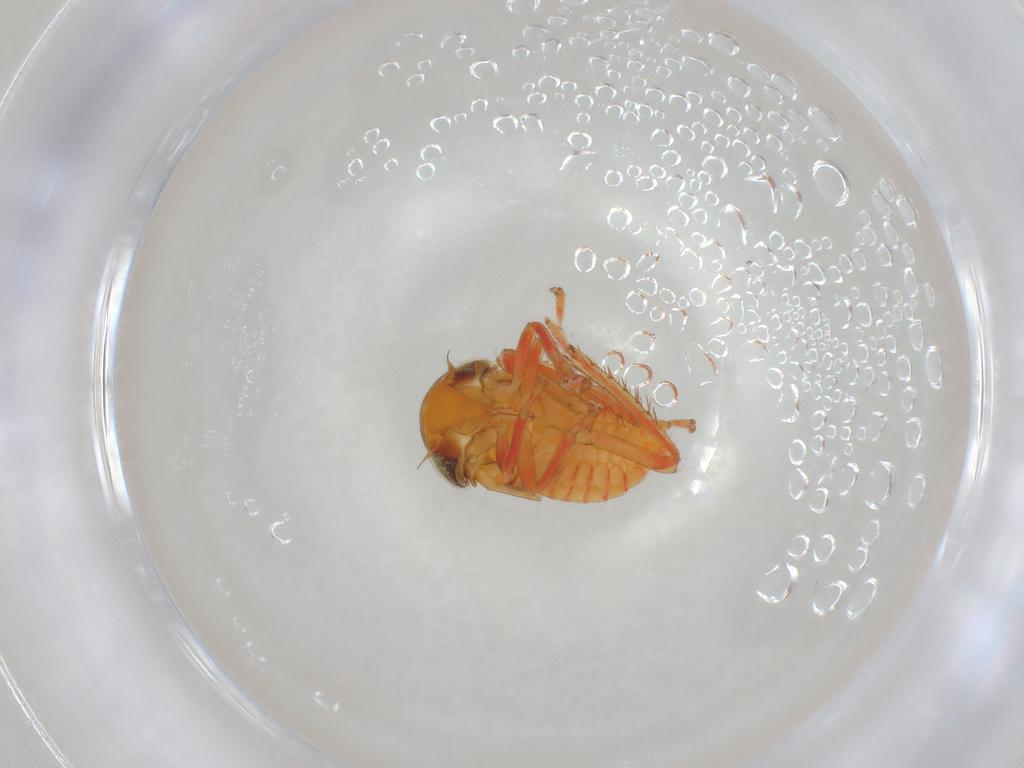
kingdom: Animalia
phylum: Arthropoda
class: Insecta
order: Hemiptera
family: Cicadellidae
